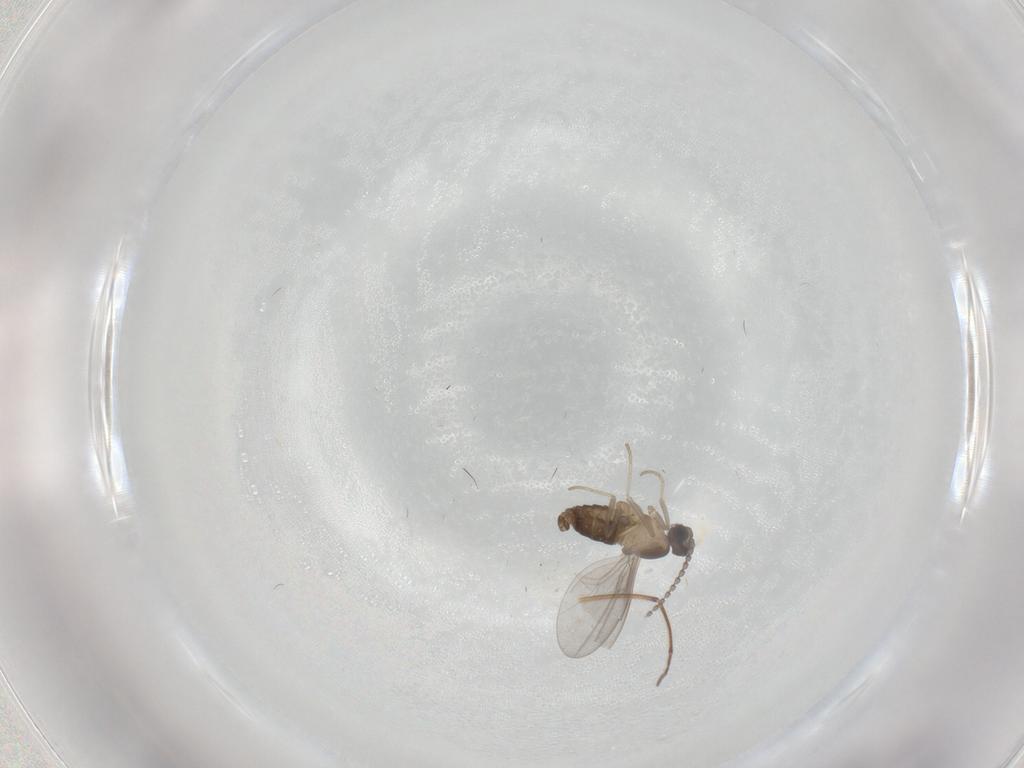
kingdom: Animalia
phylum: Arthropoda
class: Insecta
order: Diptera
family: Cecidomyiidae
